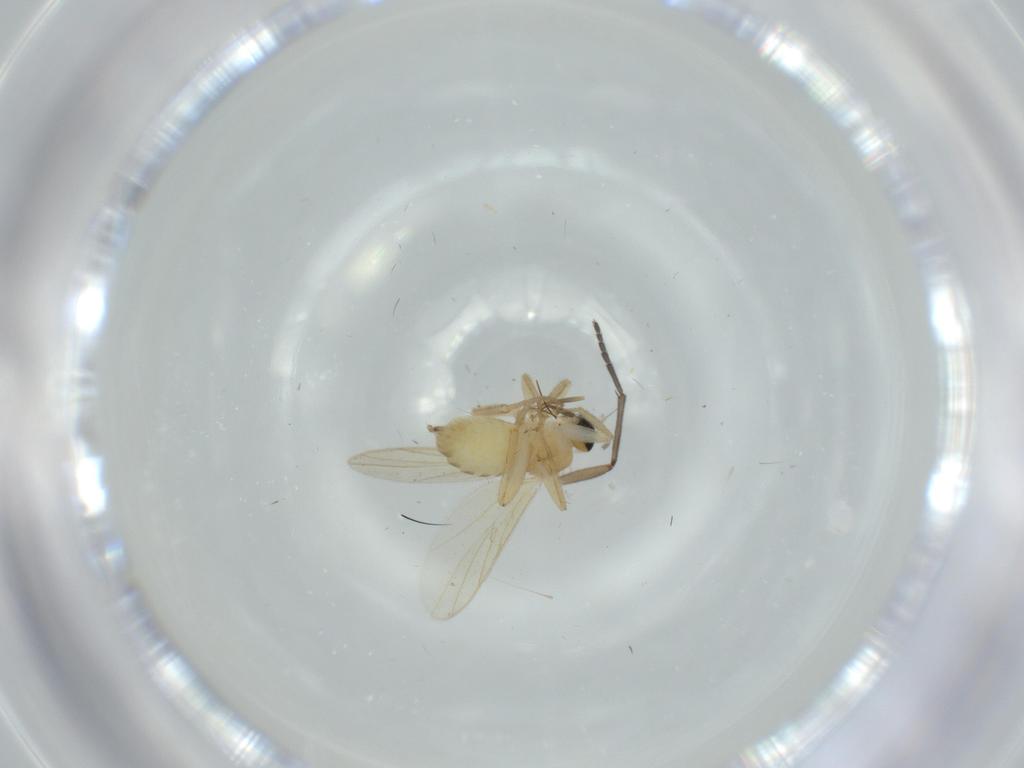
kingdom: Animalia
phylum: Arthropoda
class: Insecta
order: Diptera
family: Hybotidae
